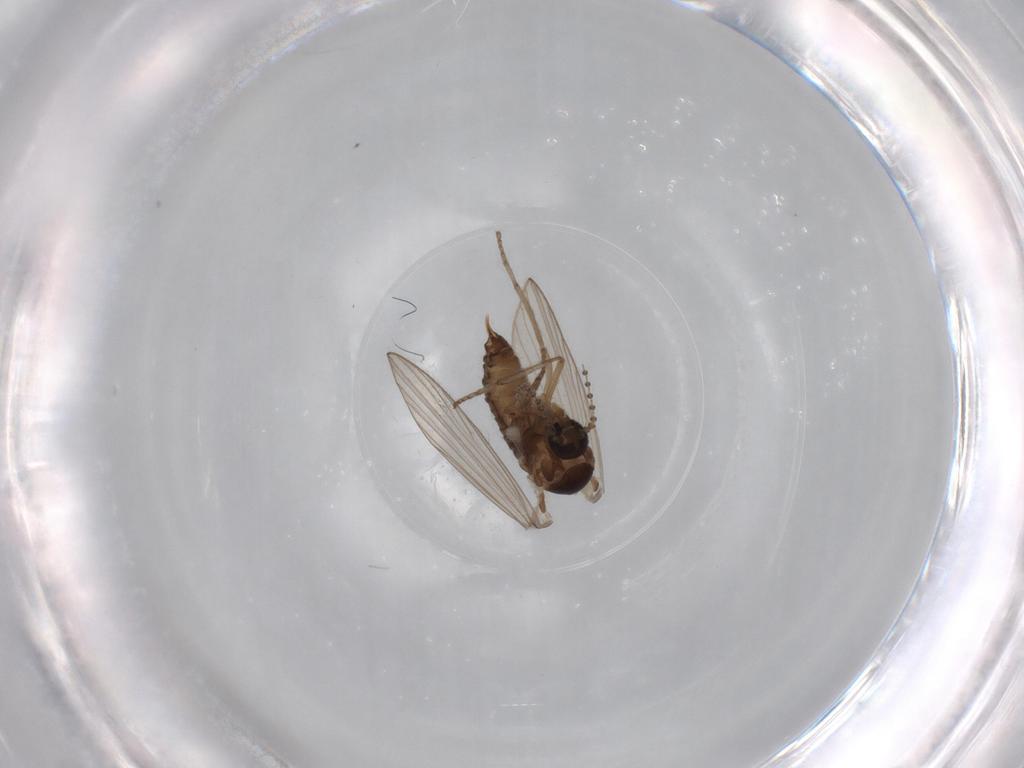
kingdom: Animalia
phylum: Arthropoda
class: Insecta
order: Diptera
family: Psychodidae
